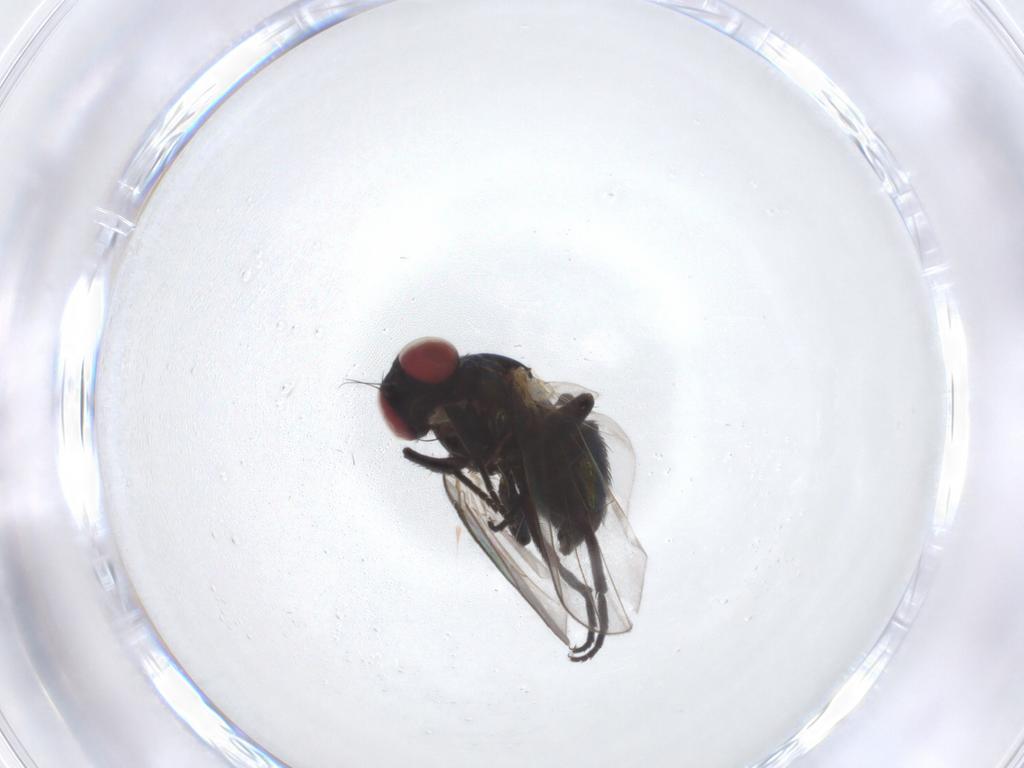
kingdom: Animalia
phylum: Arthropoda
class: Insecta
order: Diptera
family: Agromyzidae
